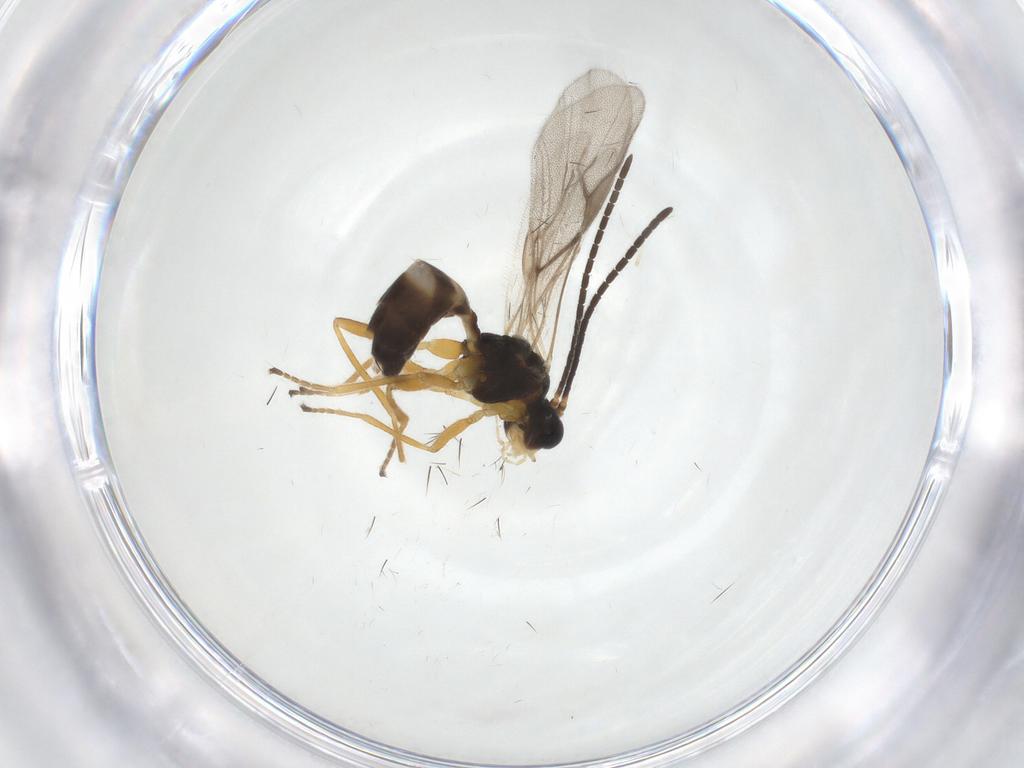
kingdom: Animalia
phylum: Arthropoda
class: Insecta
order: Hymenoptera
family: Braconidae
